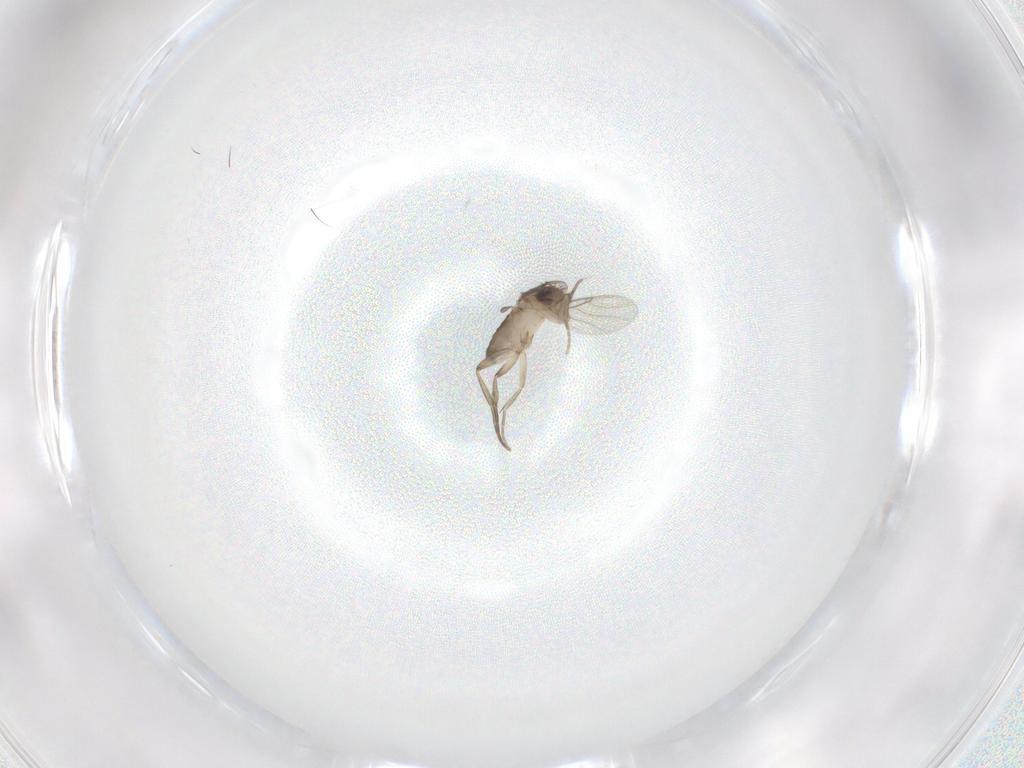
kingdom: Animalia
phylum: Arthropoda
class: Insecta
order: Diptera
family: Phoridae
